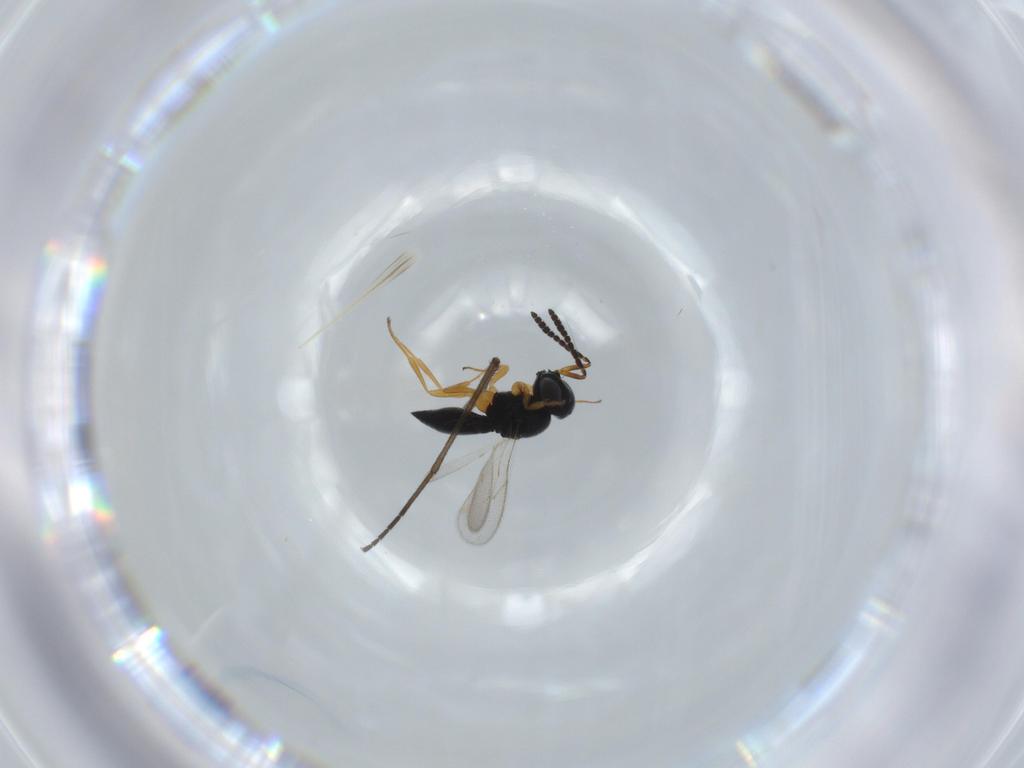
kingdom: Animalia
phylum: Arthropoda
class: Insecta
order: Hymenoptera
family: Scelionidae
